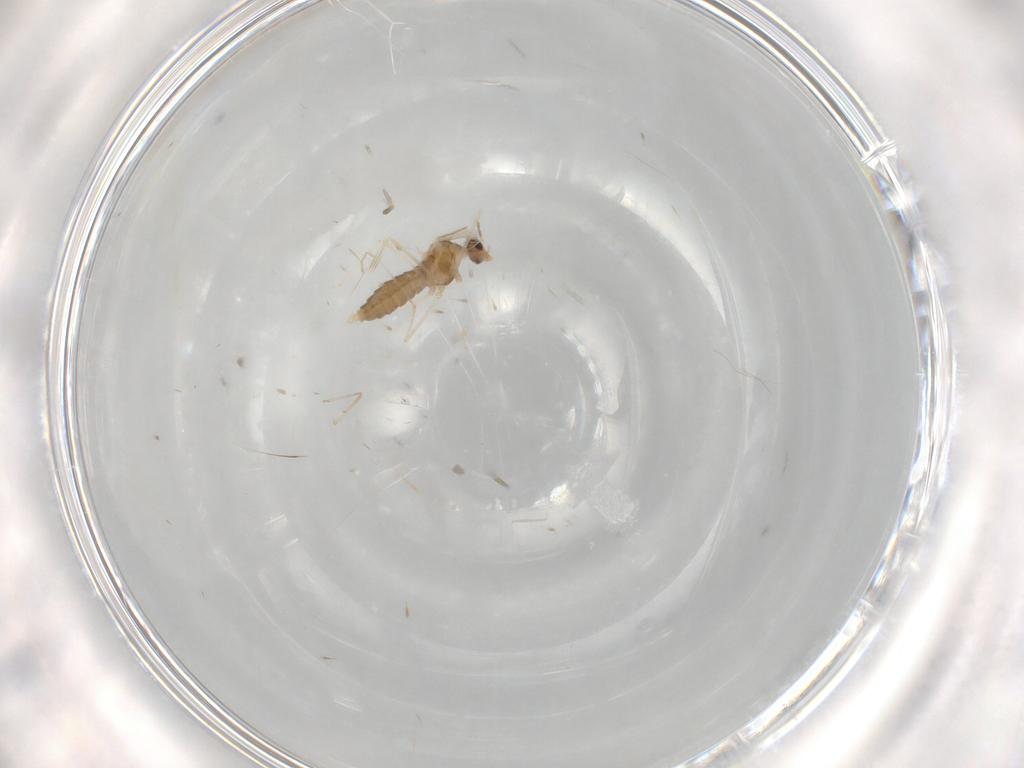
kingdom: Animalia
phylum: Arthropoda
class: Insecta
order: Diptera
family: Cecidomyiidae
